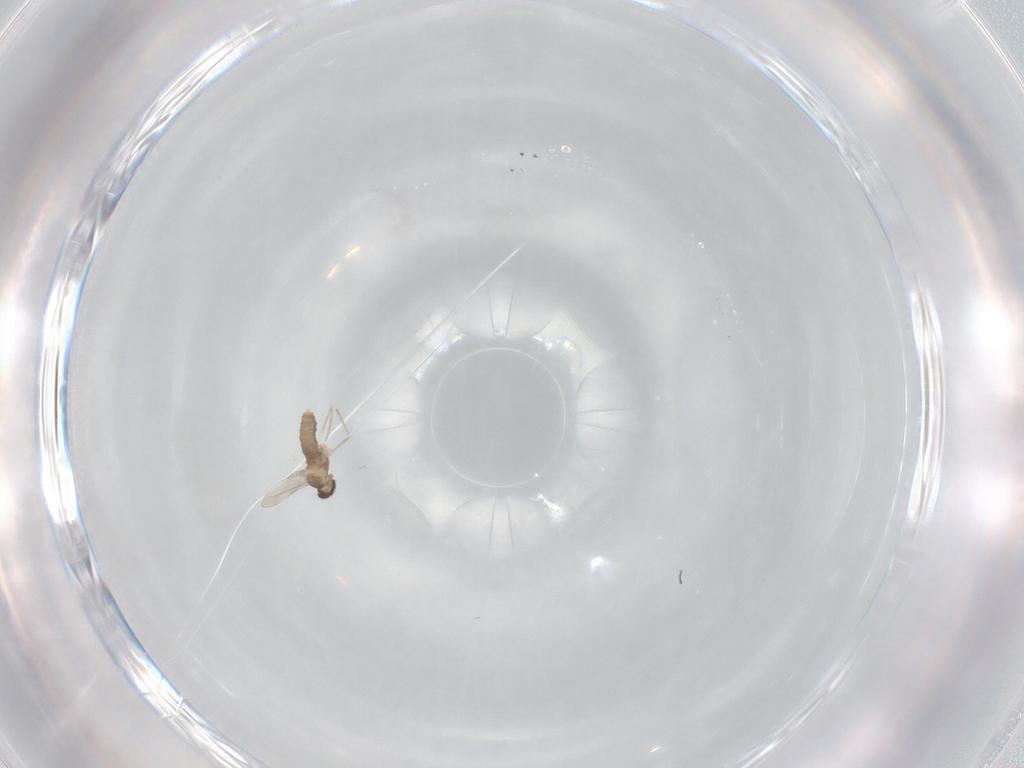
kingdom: Animalia
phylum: Arthropoda
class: Insecta
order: Diptera
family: Cecidomyiidae
